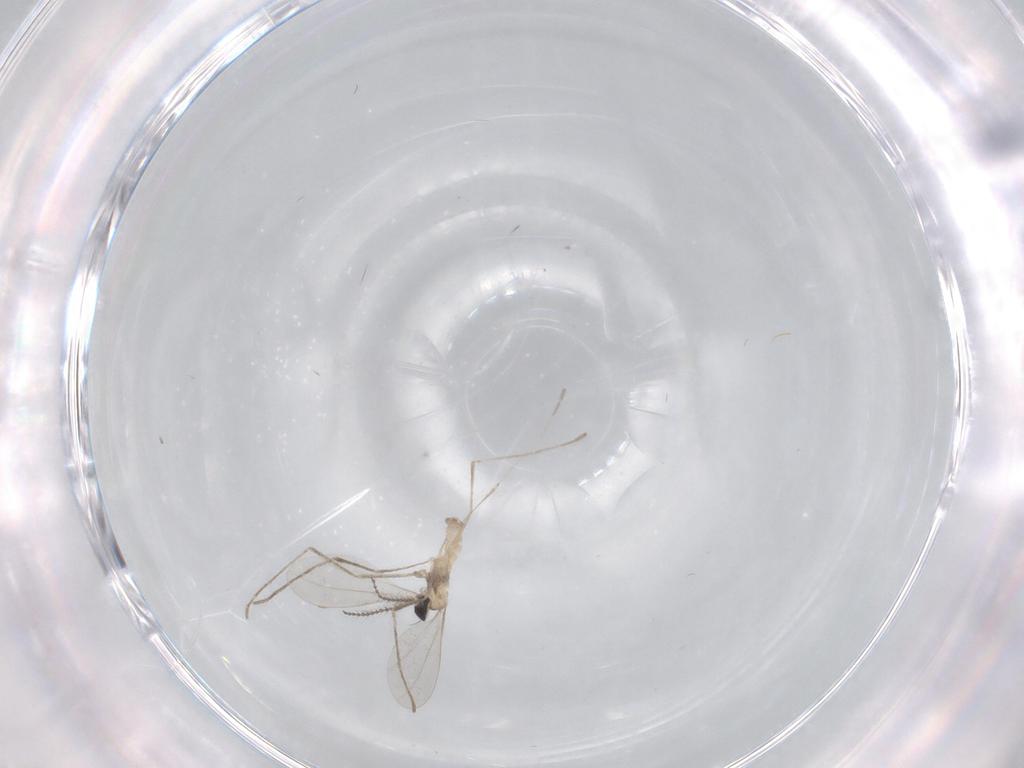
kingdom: Animalia
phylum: Arthropoda
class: Insecta
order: Diptera
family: Cecidomyiidae
